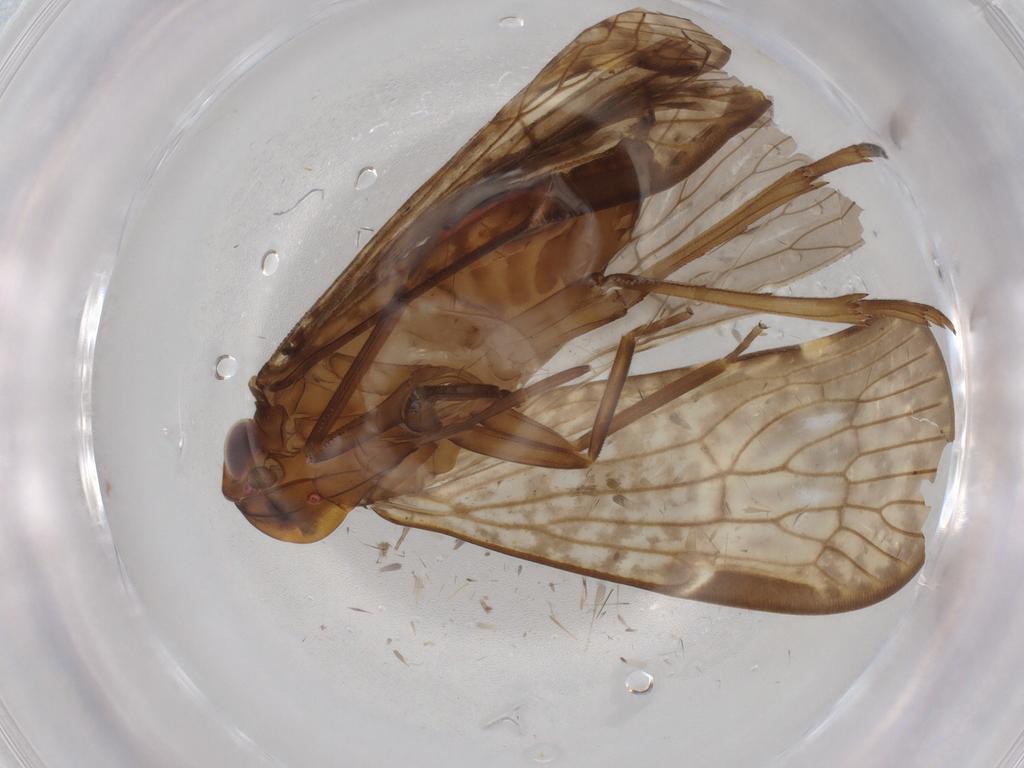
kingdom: Animalia
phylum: Arthropoda
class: Insecta
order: Hemiptera
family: Cixiidae
